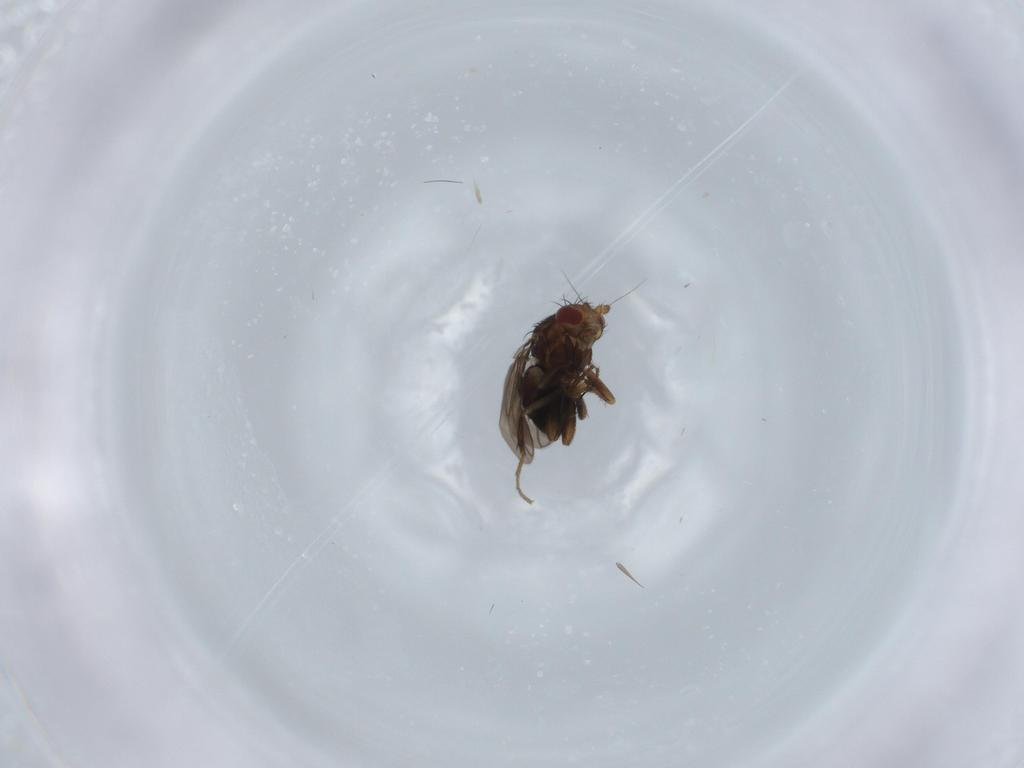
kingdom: Animalia
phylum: Arthropoda
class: Insecta
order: Diptera
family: Sphaeroceridae
